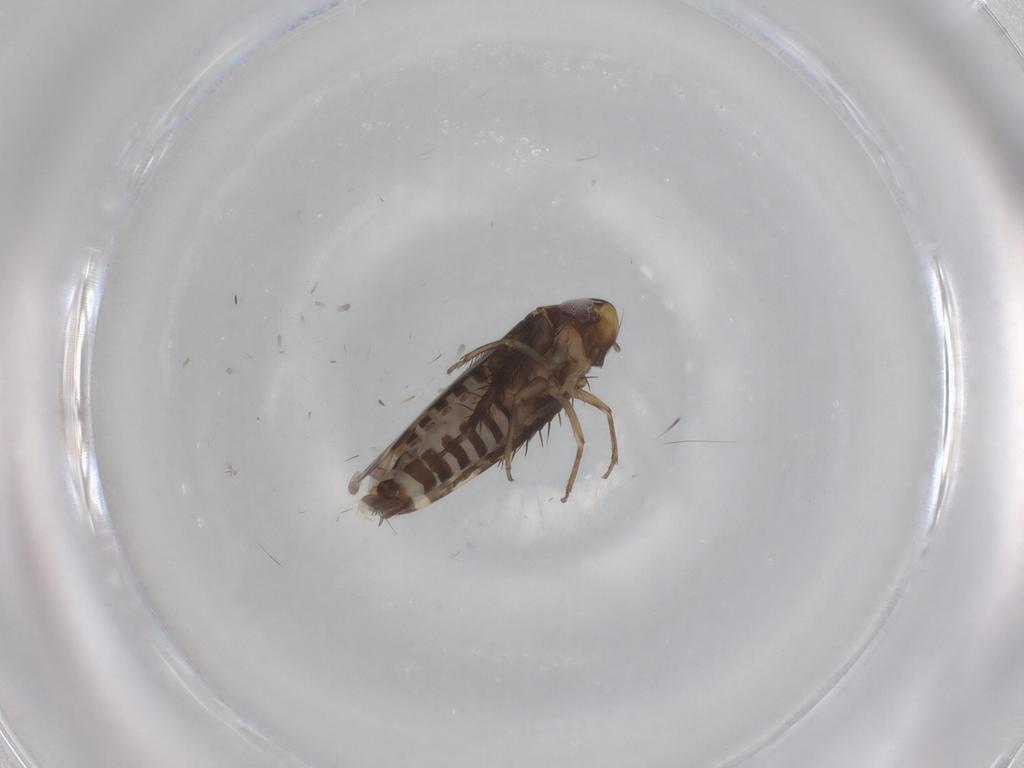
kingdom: Animalia
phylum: Arthropoda
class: Insecta
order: Hemiptera
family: Cicadellidae
